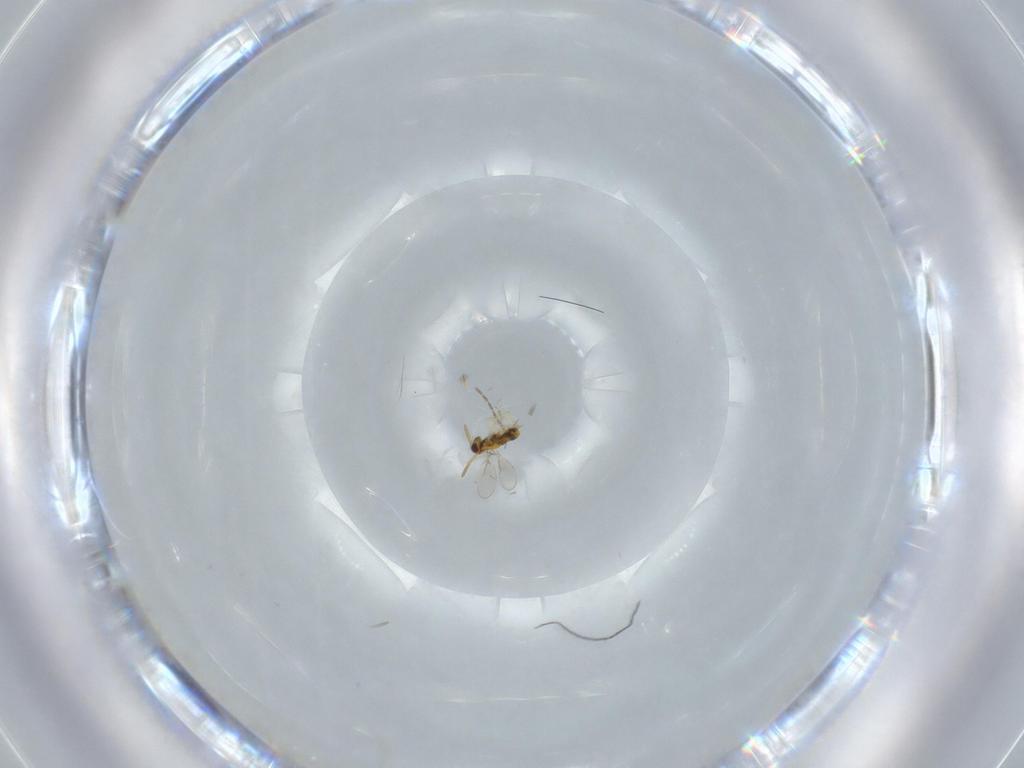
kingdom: Animalia
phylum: Arthropoda
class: Insecta
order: Hymenoptera
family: Aphelinidae
